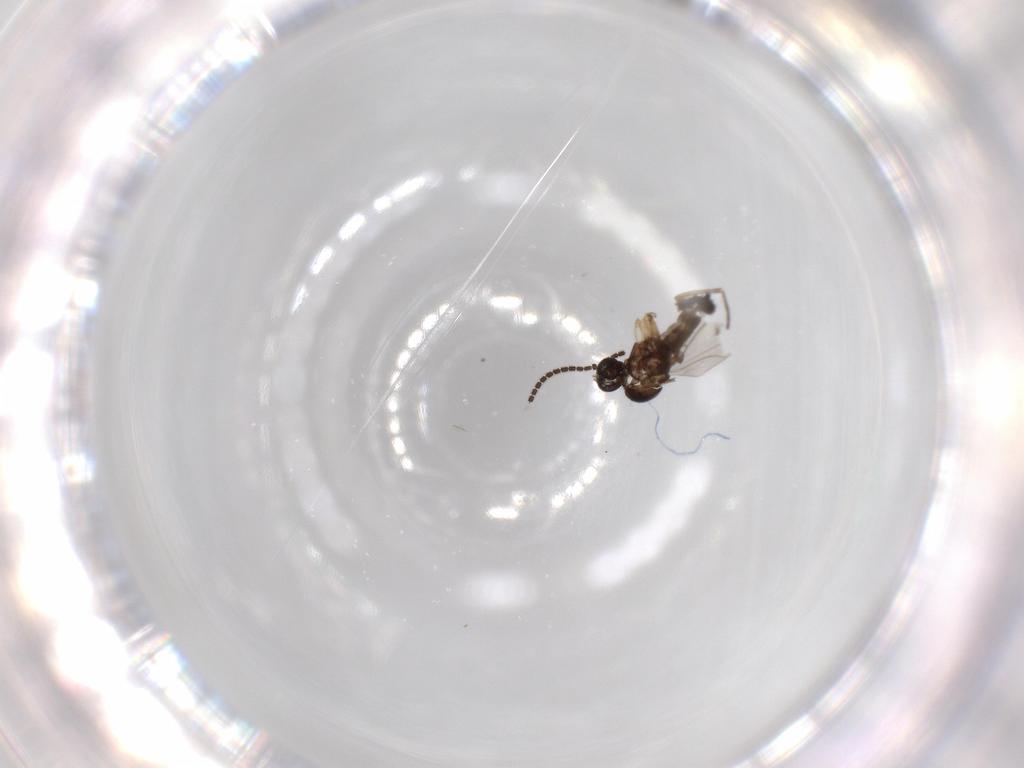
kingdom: Animalia
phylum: Arthropoda
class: Insecta
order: Diptera
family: Sciaridae
